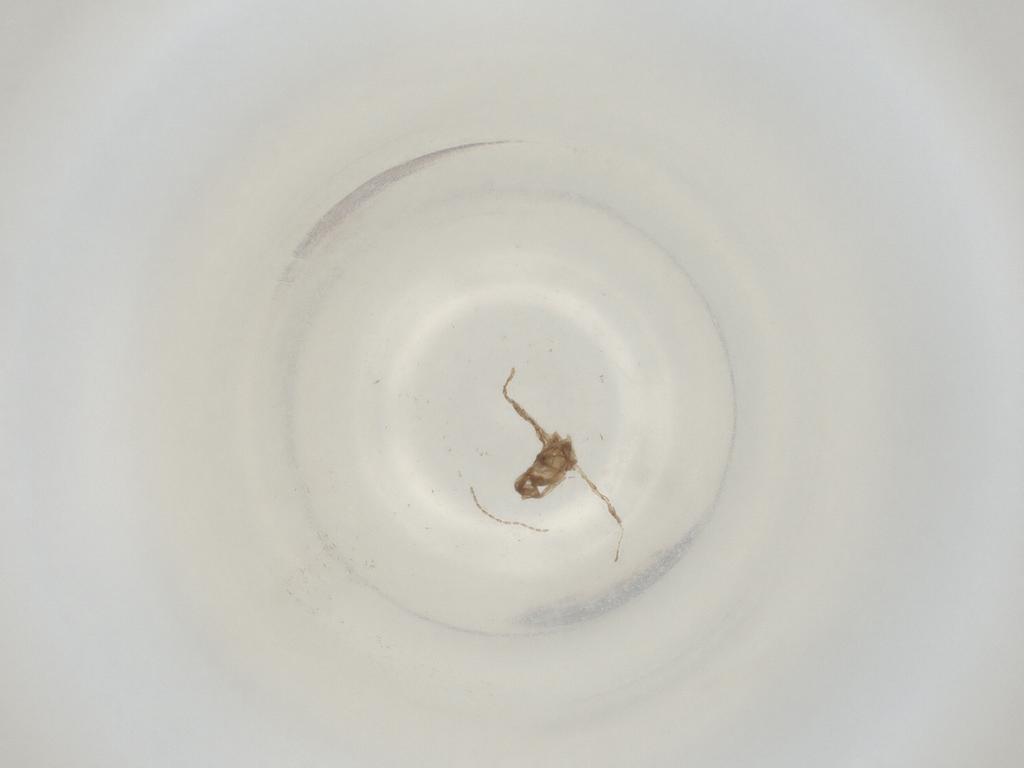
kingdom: Animalia
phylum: Arthropoda
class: Insecta
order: Diptera
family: Cecidomyiidae
